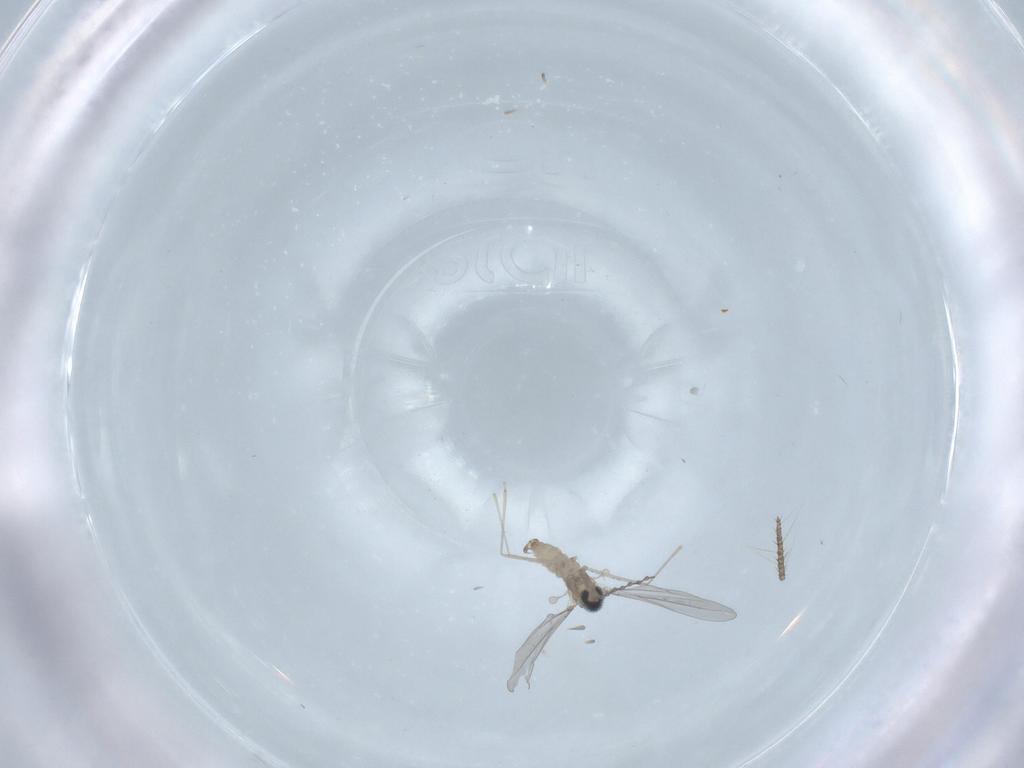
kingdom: Animalia
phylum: Arthropoda
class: Insecta
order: Diptera
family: Cecidomyiidae
